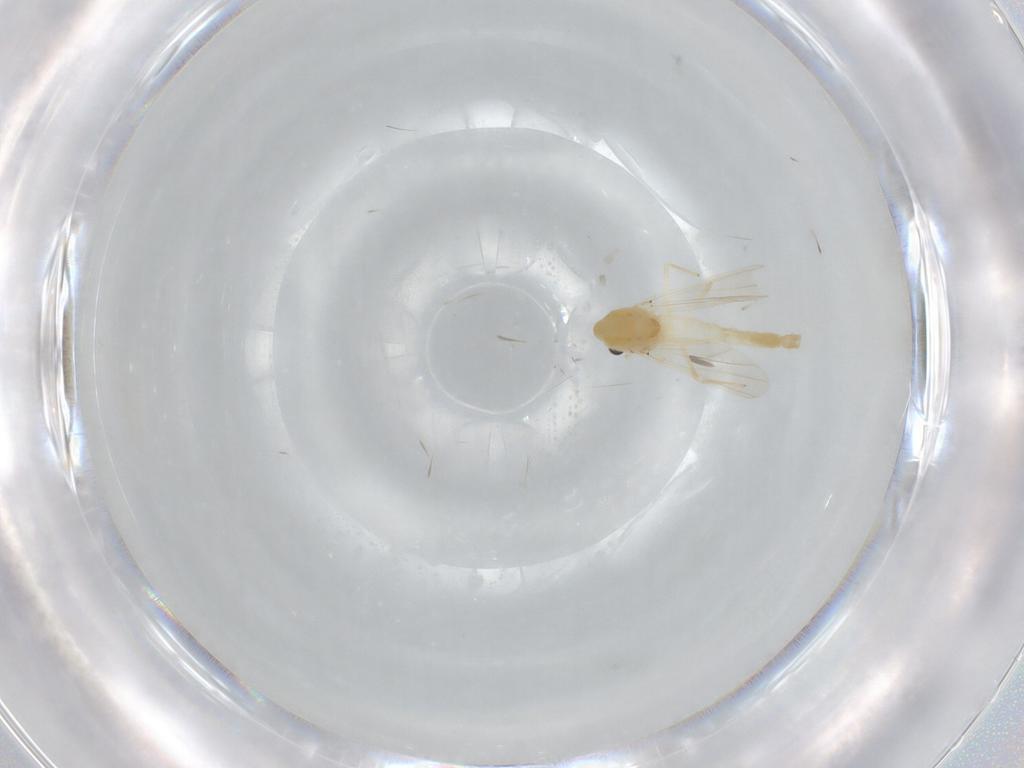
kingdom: Animalia
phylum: Arthropoda
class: Insecta
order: Diptera
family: Chironomidae
